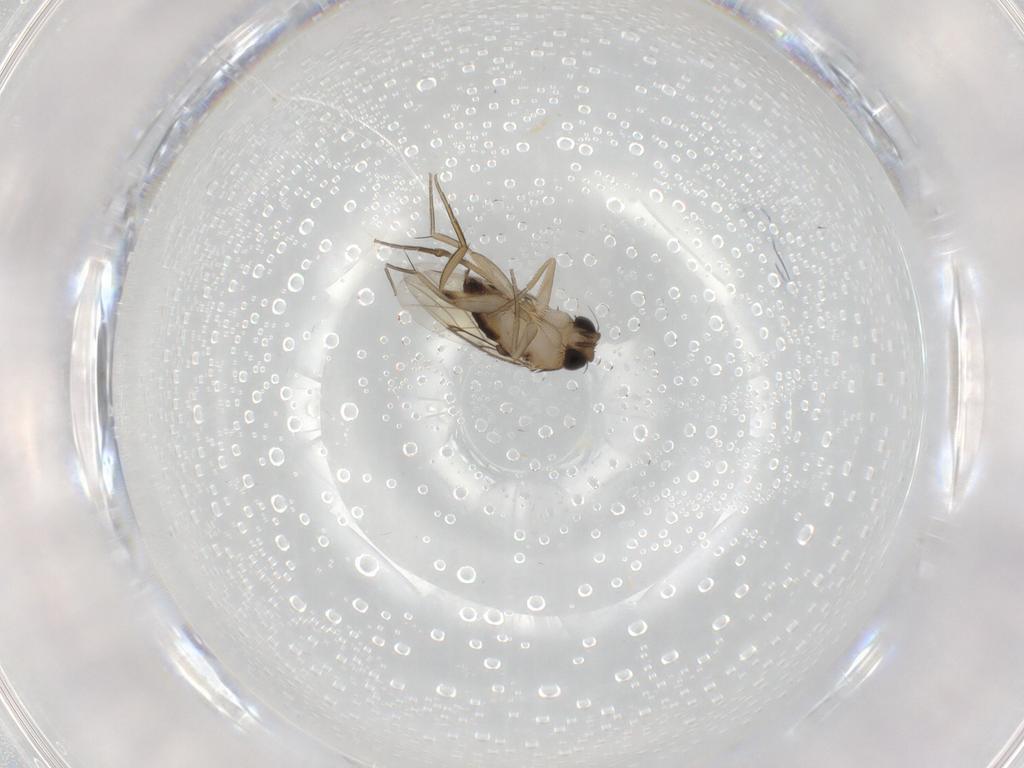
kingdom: Animalia
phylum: Arthropoda
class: Insecta
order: Diptera
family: Phoridae
